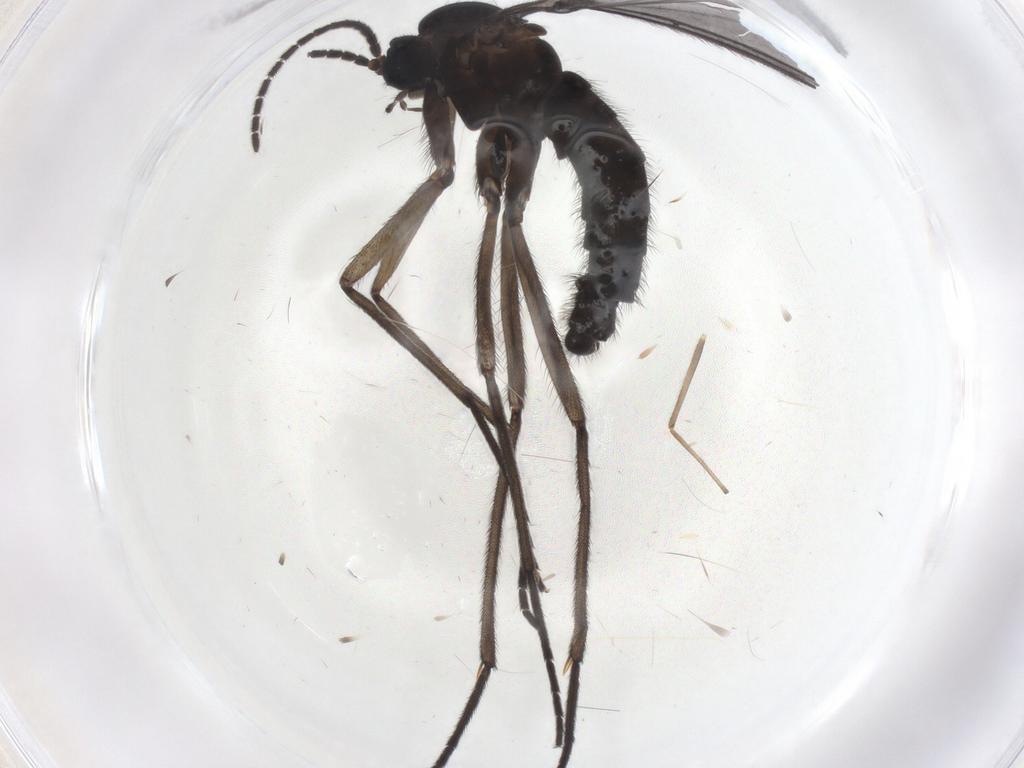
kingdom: Animalia
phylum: Arthropoda
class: Insecta
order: Diptera
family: Sciaridae
